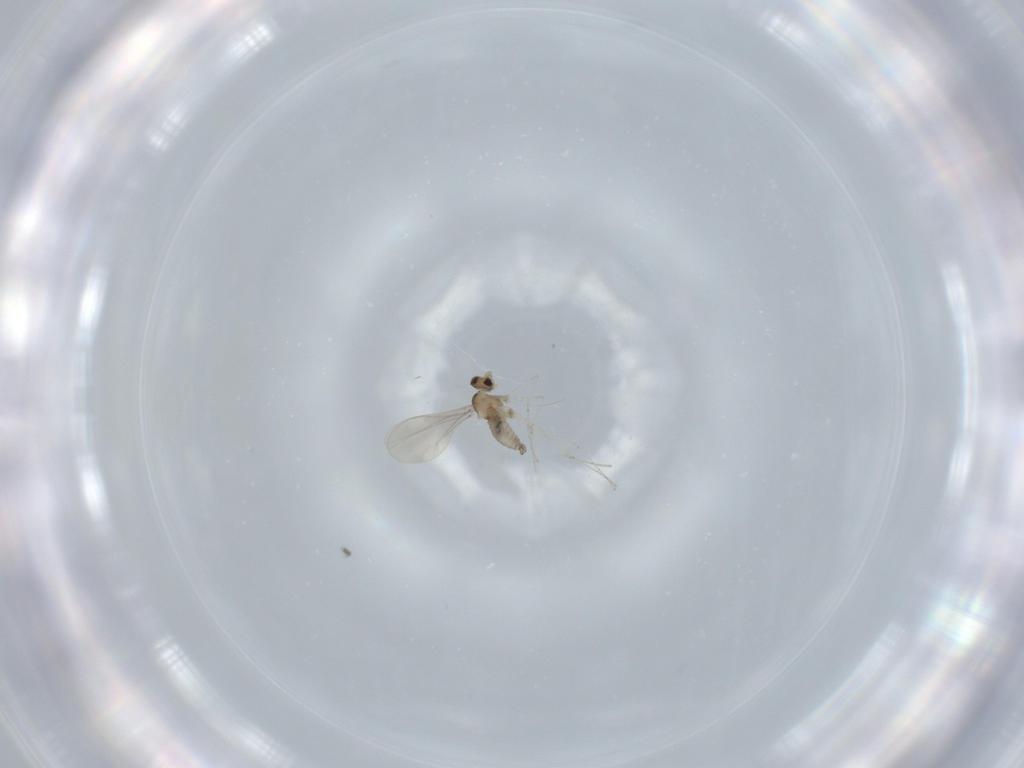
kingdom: Animalia
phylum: Arthropoda
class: Insecta
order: Diptera
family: Cecidomyiidae
